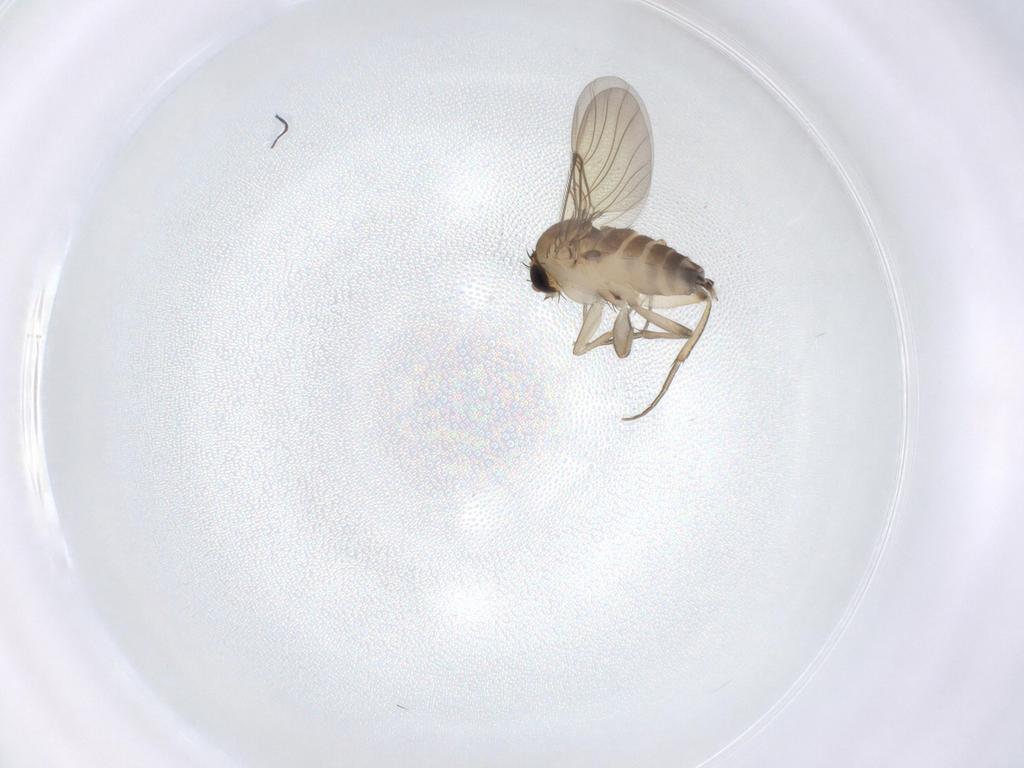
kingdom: Animalia
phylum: Arthropoda
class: Insecta
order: Diptera
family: Phoridae
